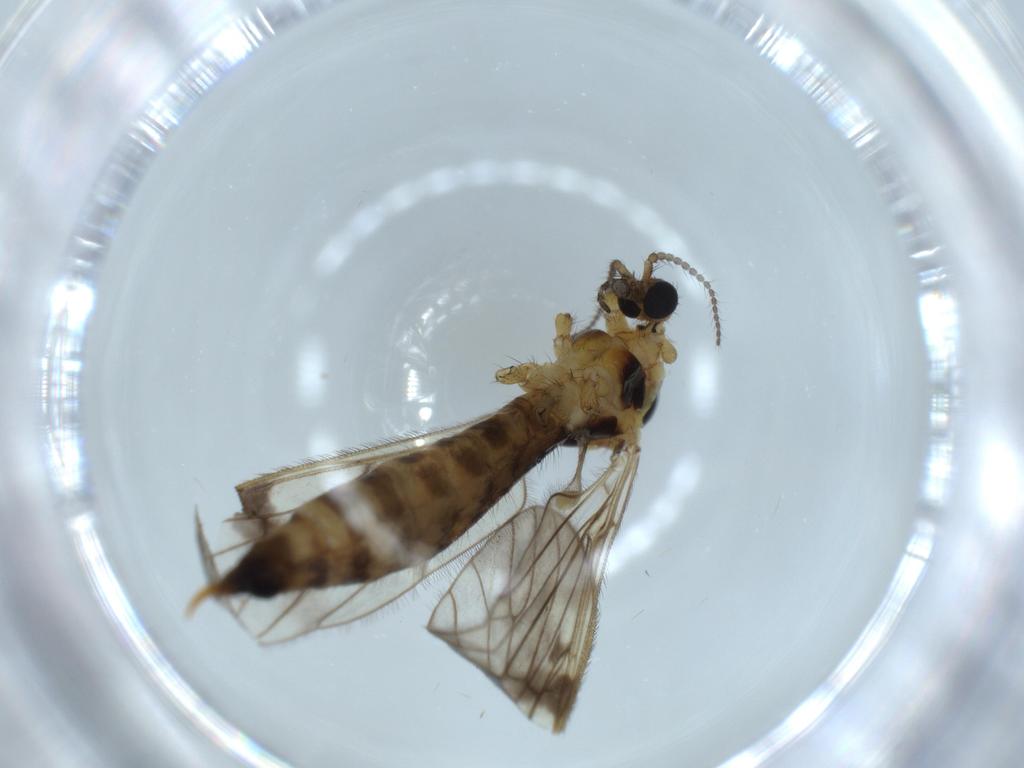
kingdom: Animalia
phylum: Arthropoda
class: Insecta
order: Diptera
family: Limoniidae
